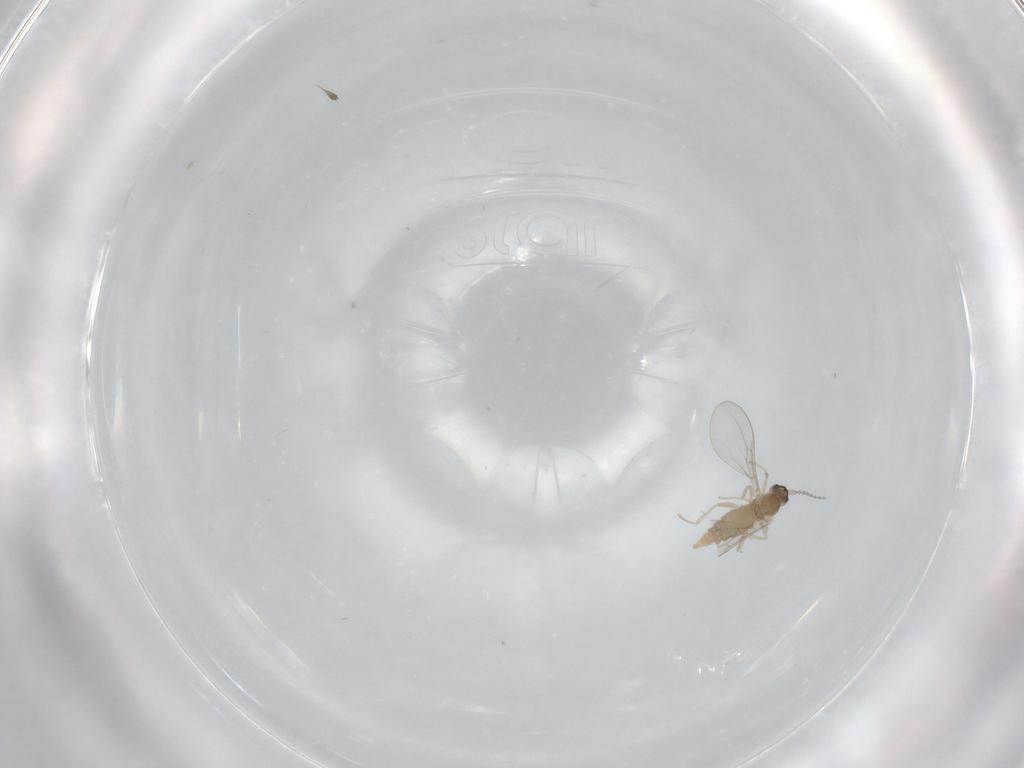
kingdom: Animalia
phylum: Arthropoda
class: Insecta
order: Diptera
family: Cecidomyiidae
